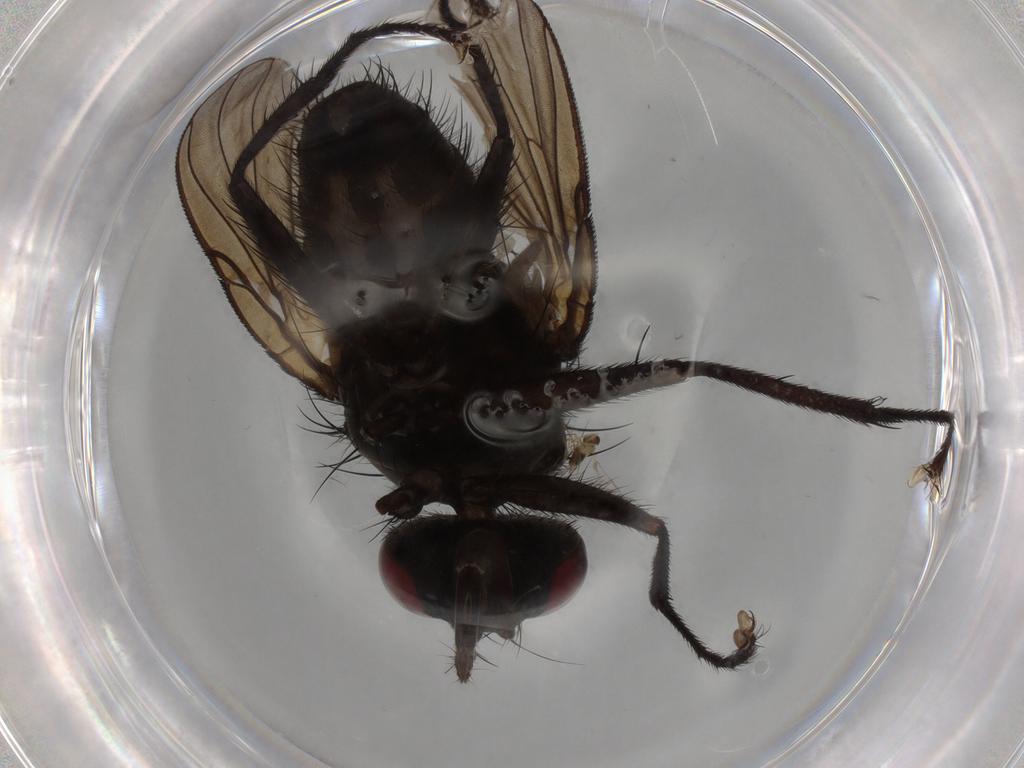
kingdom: Animalia
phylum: Arthropoda
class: Insecta
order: Diptera
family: Muscidae
